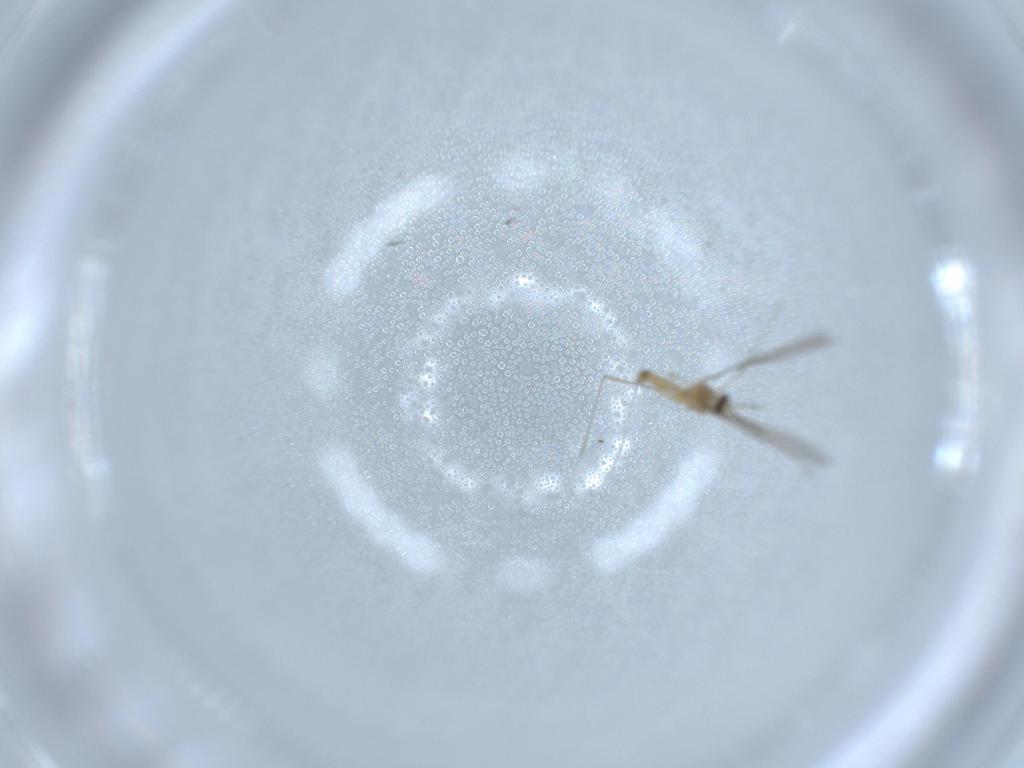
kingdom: Animalia
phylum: Arthropoda
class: Insecta
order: Diptera
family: Cecidomyiidae
